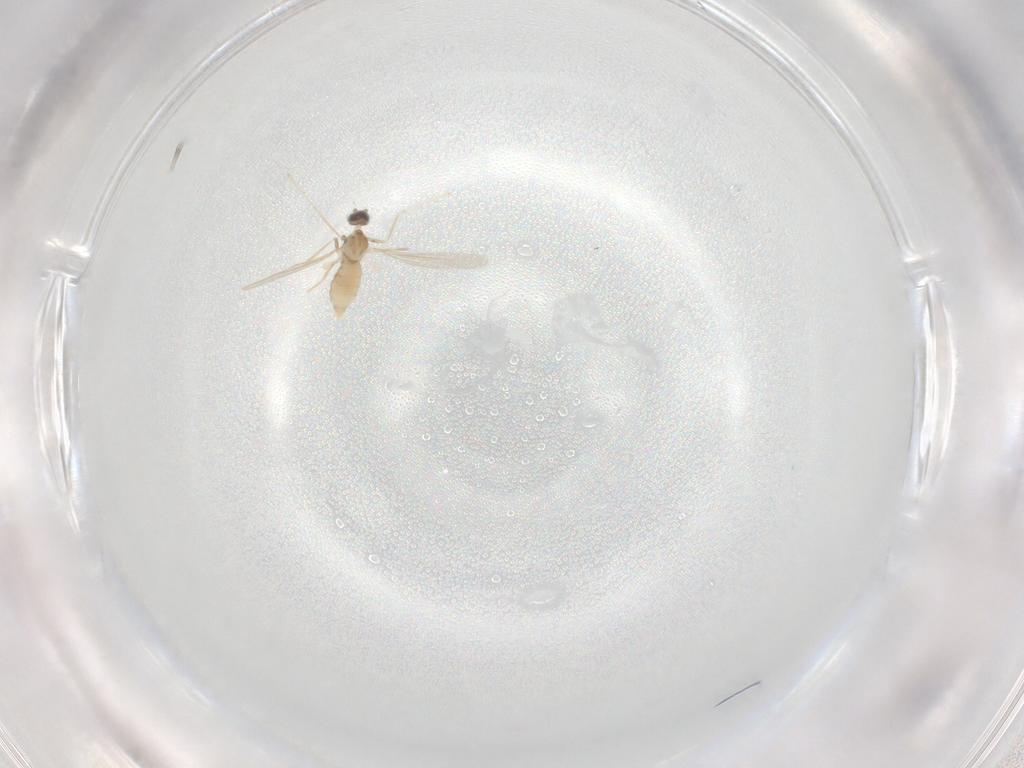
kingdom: Animalia
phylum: Arthropoda
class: Insecta
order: Diptera
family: Cecidomyiidae
